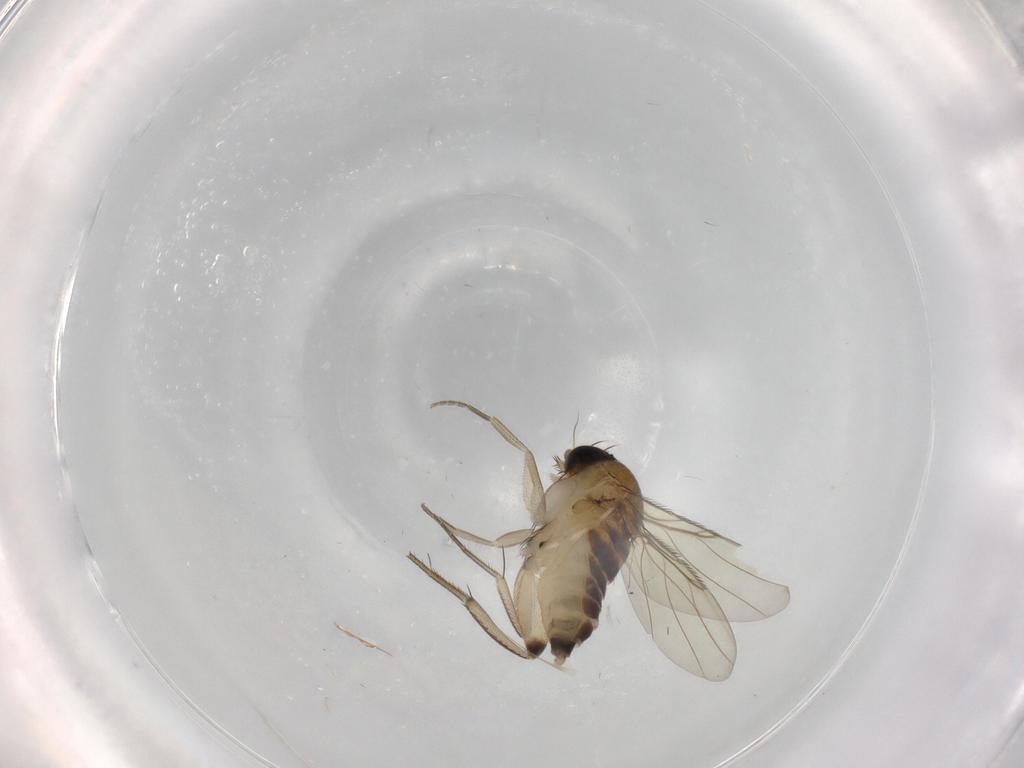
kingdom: Animalia
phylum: Arthropoda
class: Insecta
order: Diptera
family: Phoridae
